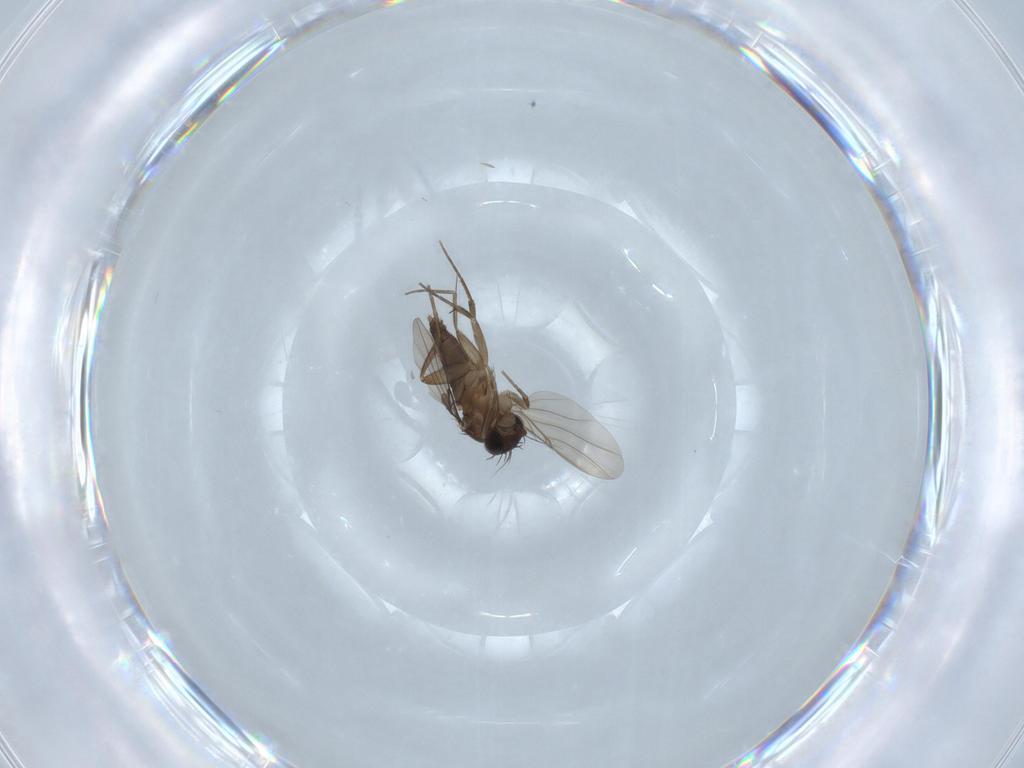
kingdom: Animalia
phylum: Arthropoda
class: Insecta
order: Diptera
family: Phoridae
